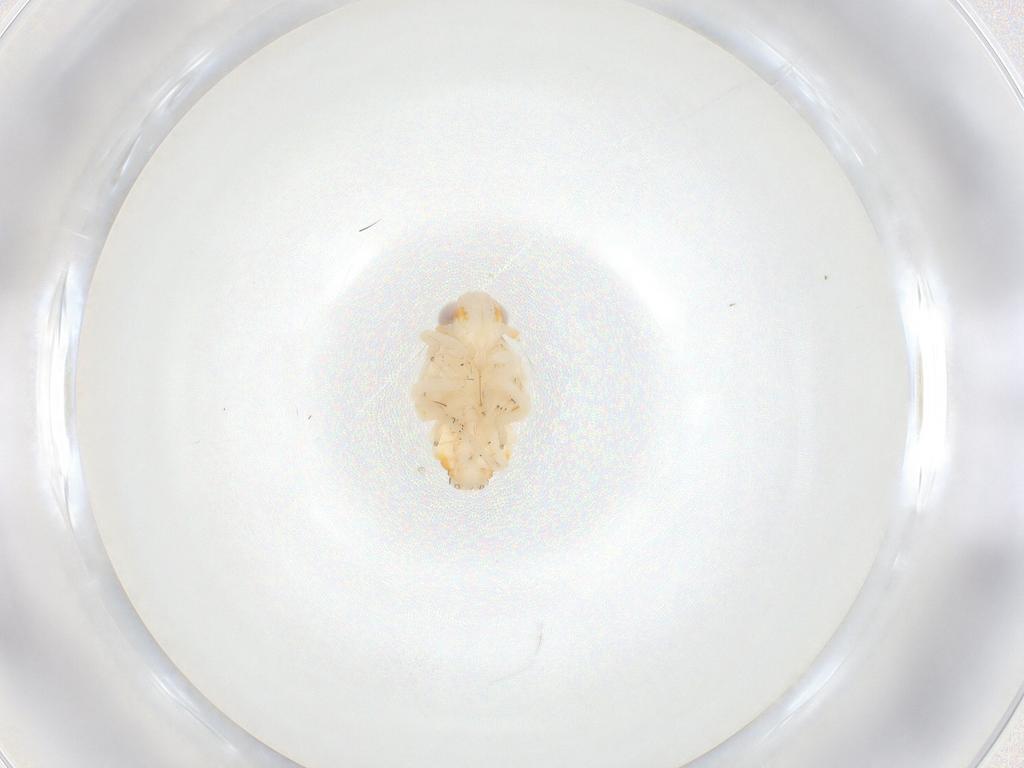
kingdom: Animalia
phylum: Arthropoda
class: Insecta
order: Hemiptera
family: Nogodinidae
